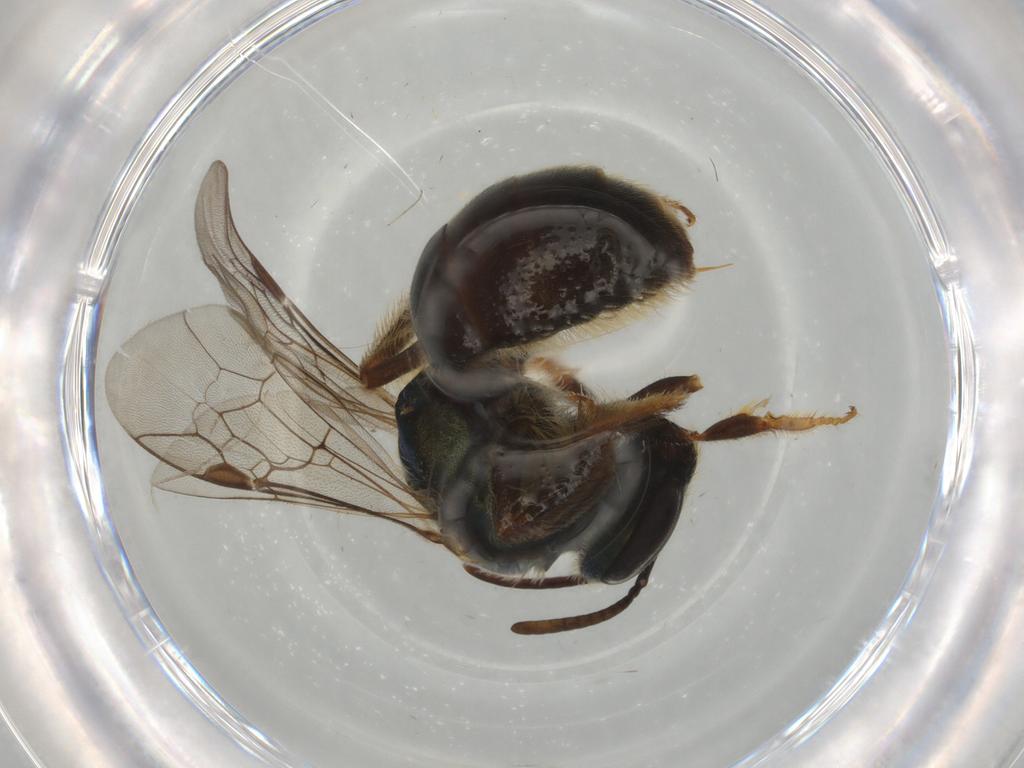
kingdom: Animalia
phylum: Arthropoda
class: Insecta
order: Hymenoptera
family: Halictidae
